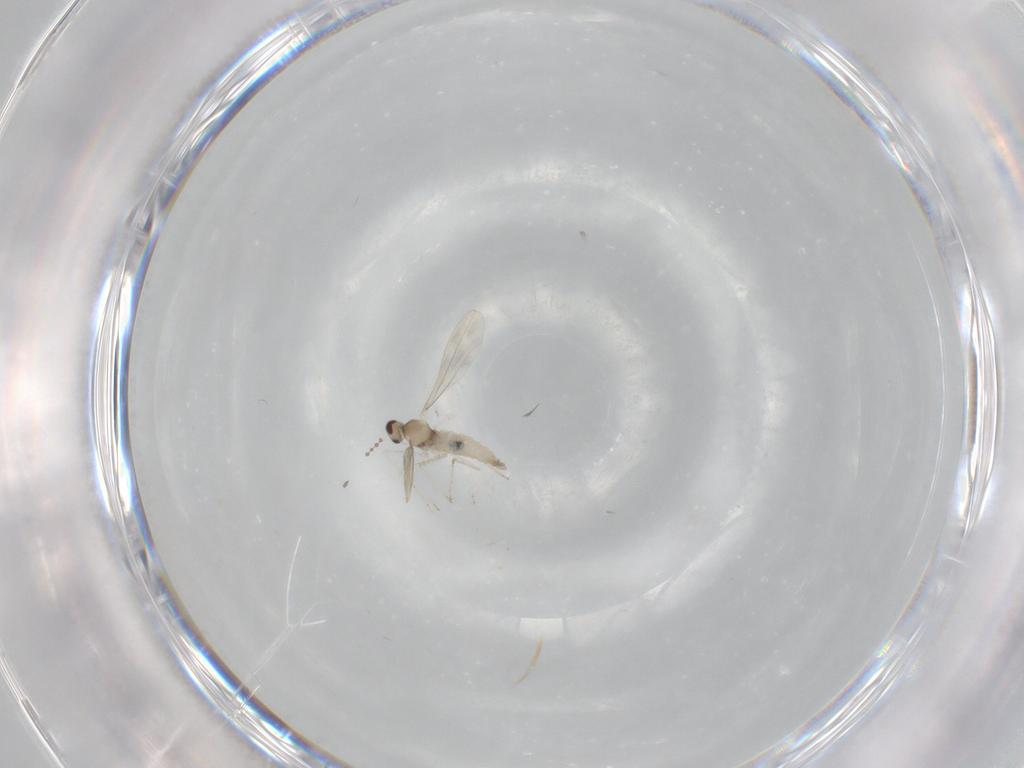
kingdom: Animalia
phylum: Arthropoda
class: Insecta
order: Diptera
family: Cecidomyiidae
